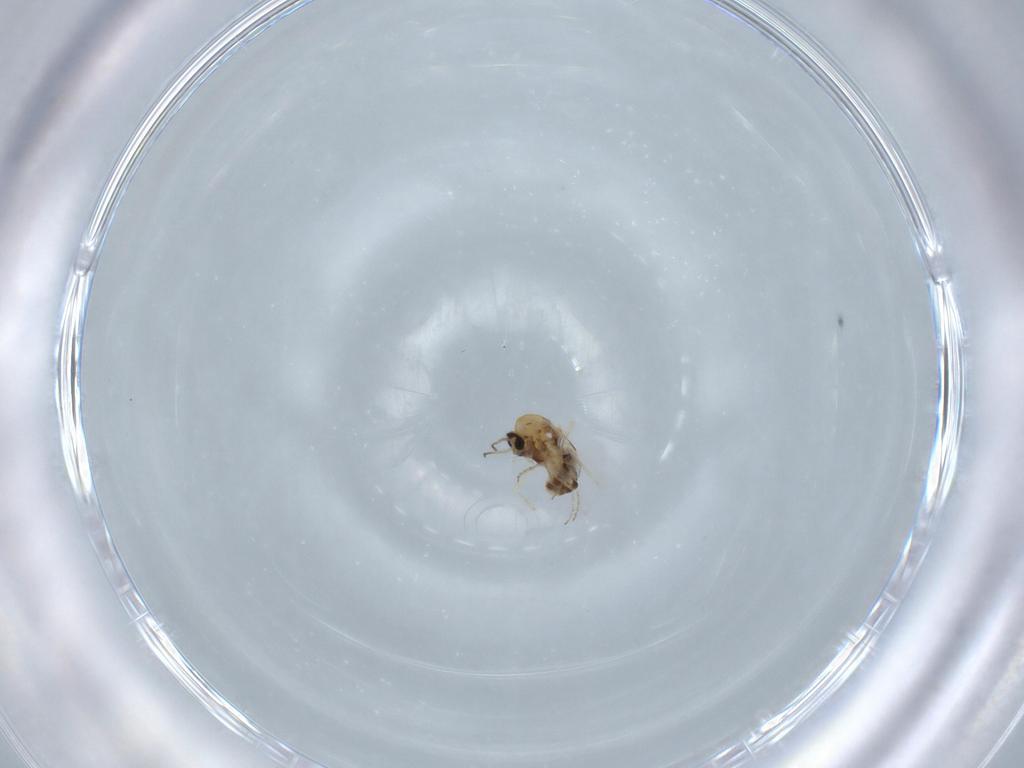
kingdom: Animalia
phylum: Arthropoda
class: Insecta
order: Diptera
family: Ceratopogonidae
